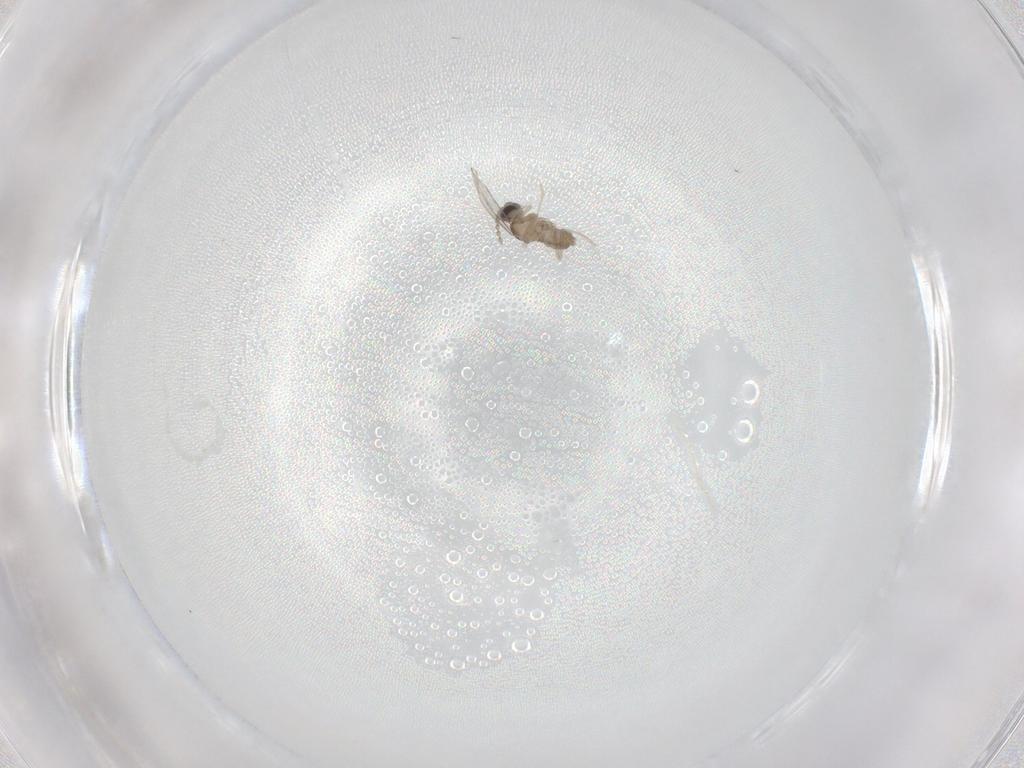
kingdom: Animalia
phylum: Arthropoda
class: Insecta
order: Diptera
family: Cecidomyiidae
